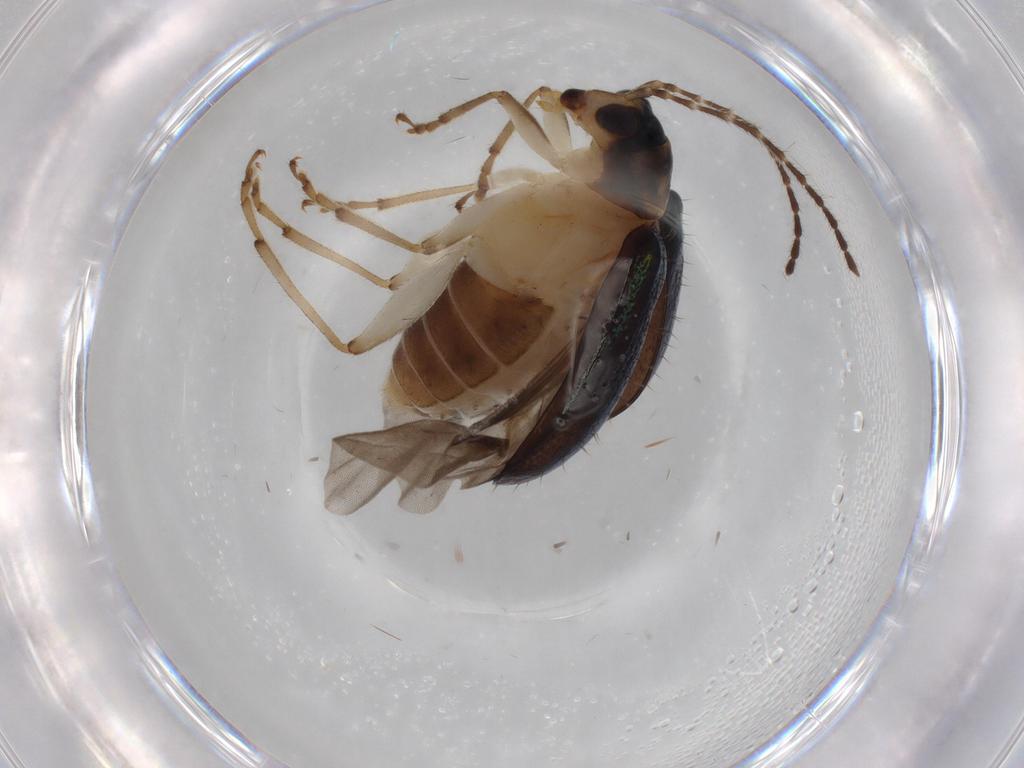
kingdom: Animalia
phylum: Arthropoda
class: Insecta
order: Coleoptera
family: Chrysomelidae
